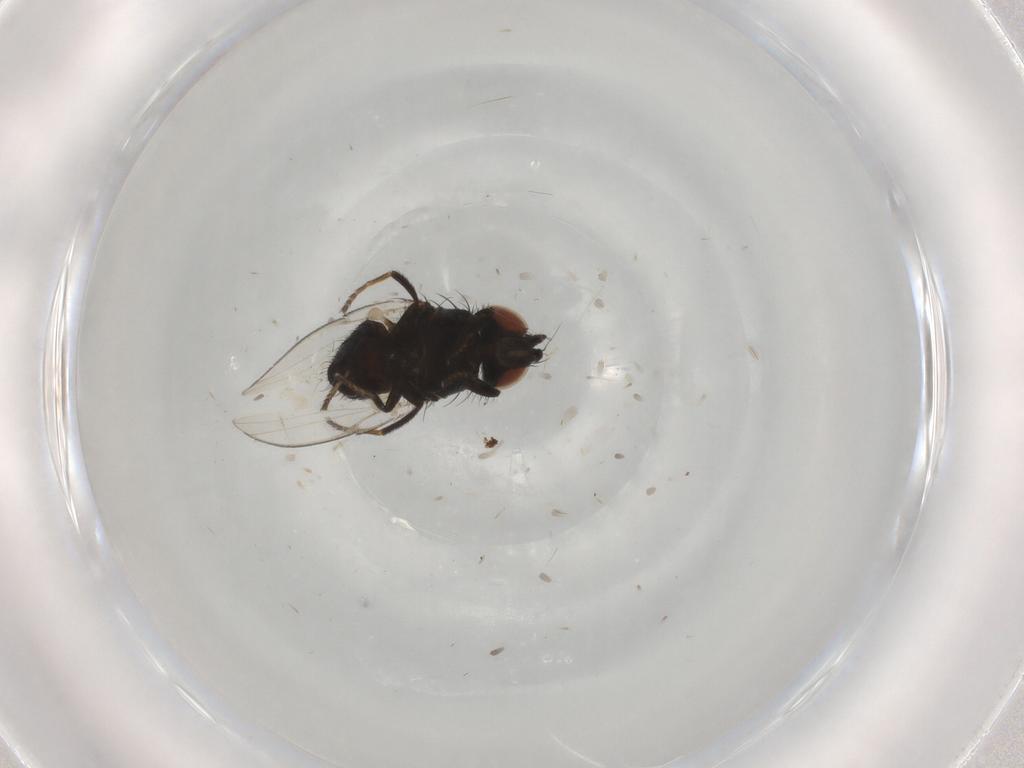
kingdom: Animalia
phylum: Arthropoda
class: Insecta
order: Diptera
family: Milichiidae
